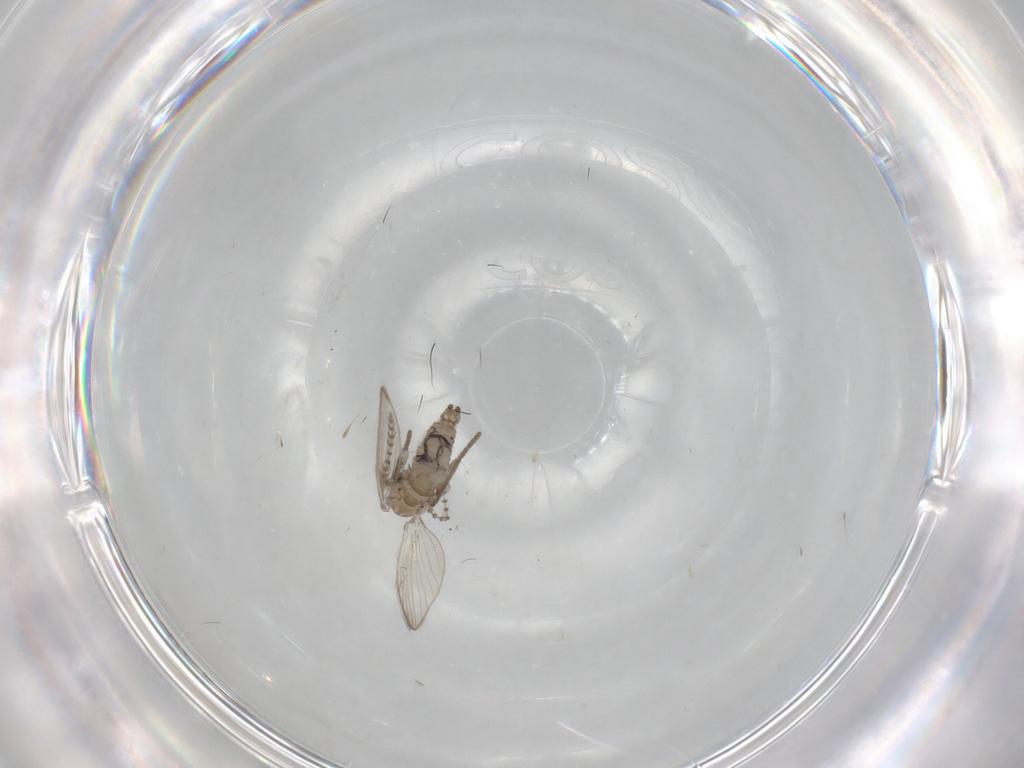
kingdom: Animalia
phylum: Arthropoda
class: Insecta
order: Diptera
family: Psychodidae
